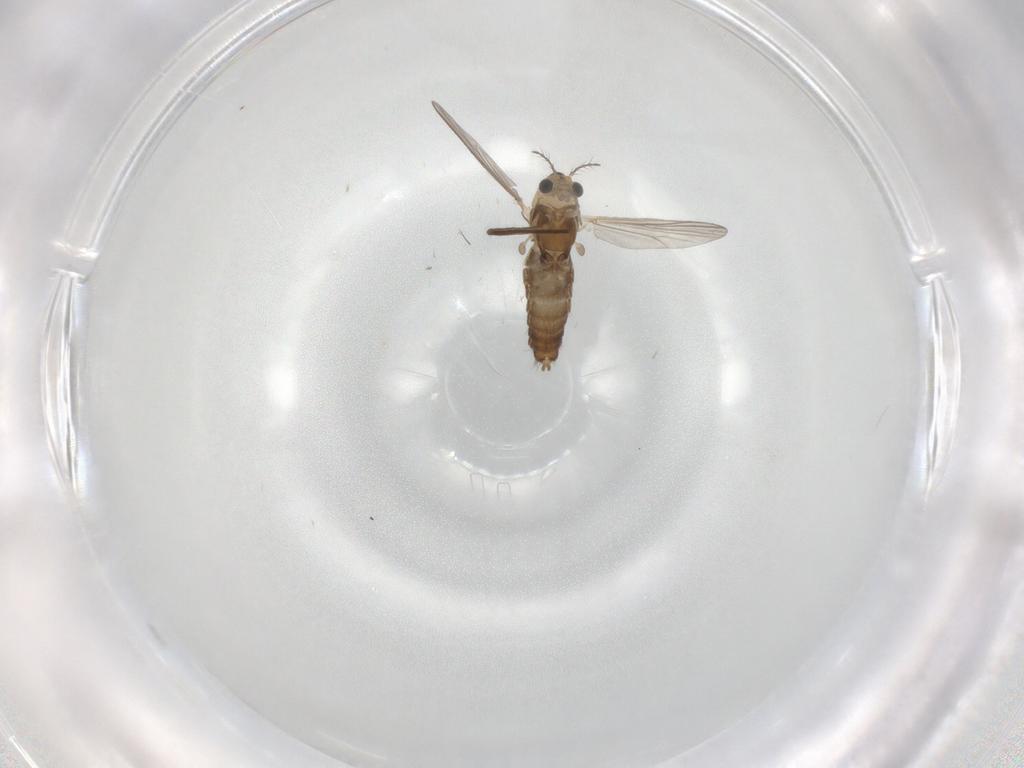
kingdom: Animalia
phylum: Arthropoda
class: Insecta
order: Diptera
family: Chironomidae
